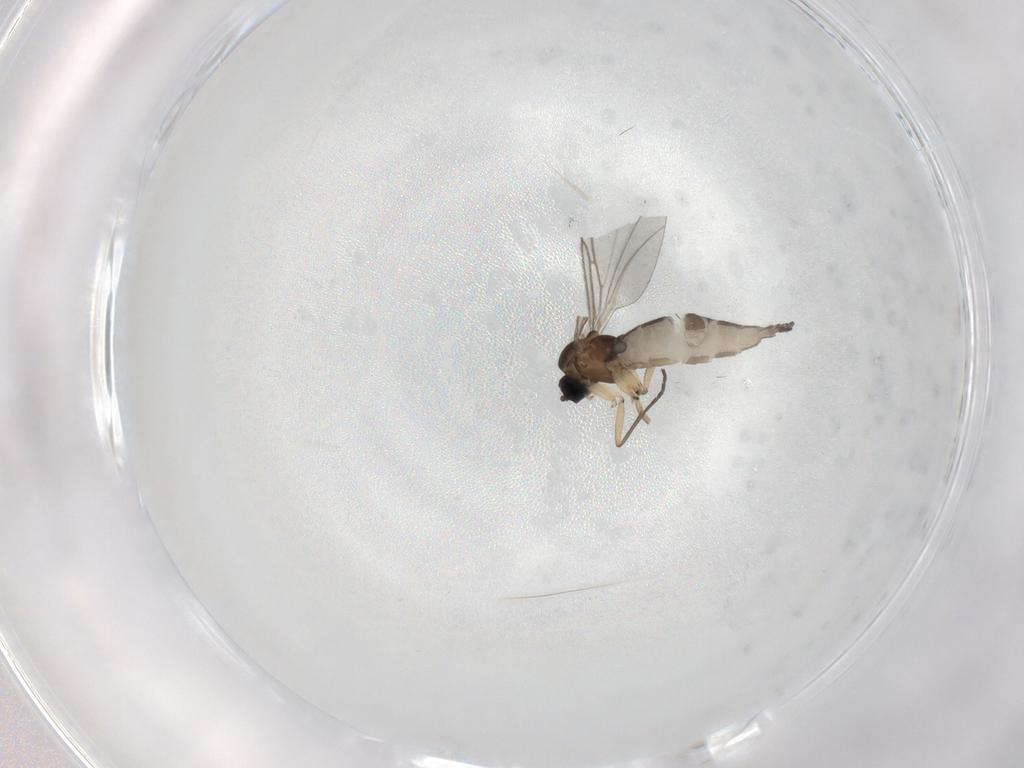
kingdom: Animalia
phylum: Arthropoda
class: Insecta
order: Diptera
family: Sciaridae
